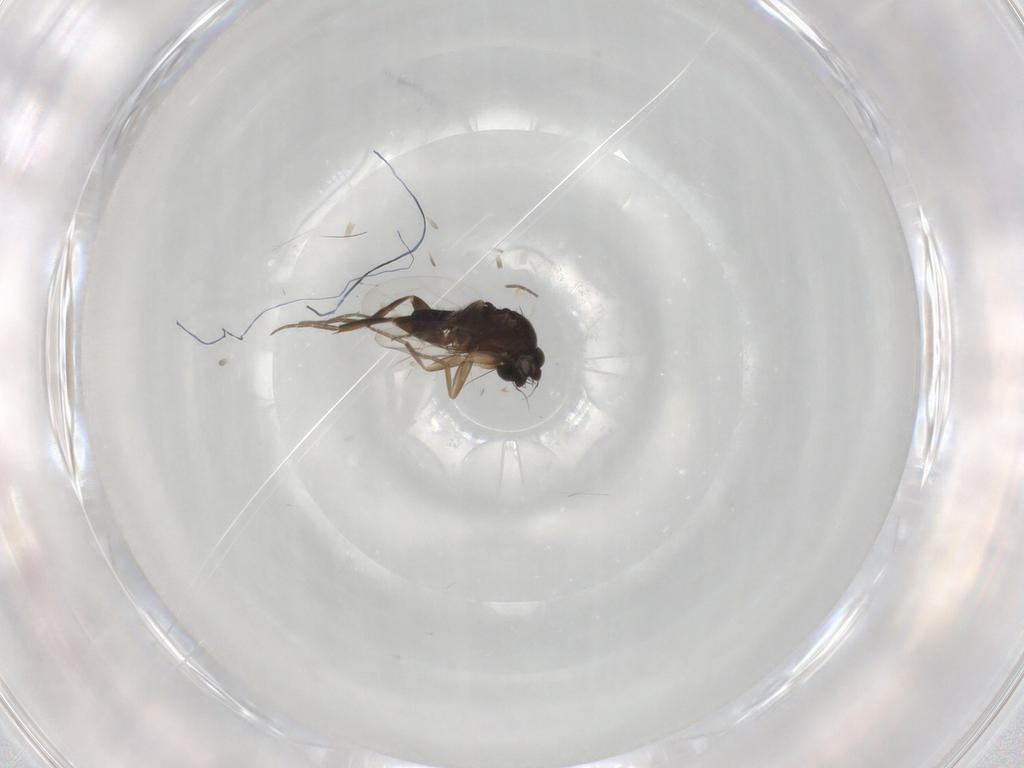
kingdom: Animalia
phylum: Arthropoda
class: Insecta
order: Diptera
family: Phoridae
